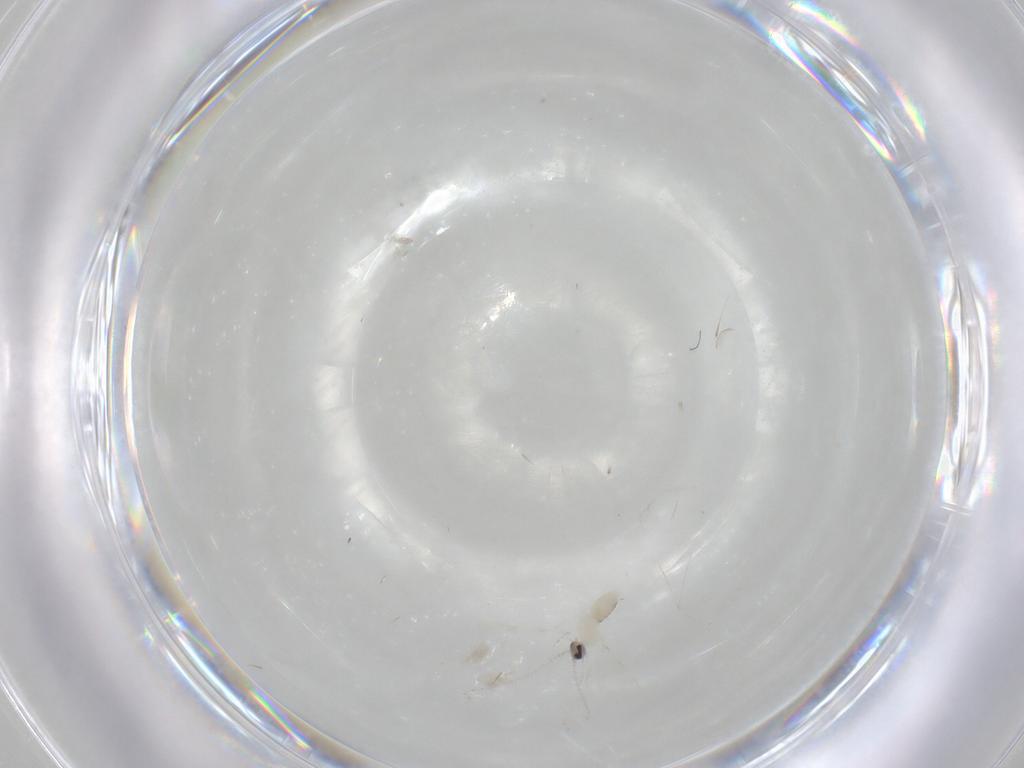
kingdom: Animalia
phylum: Arthropoda
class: Insecta
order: Diptera
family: Cecidomyiidae
